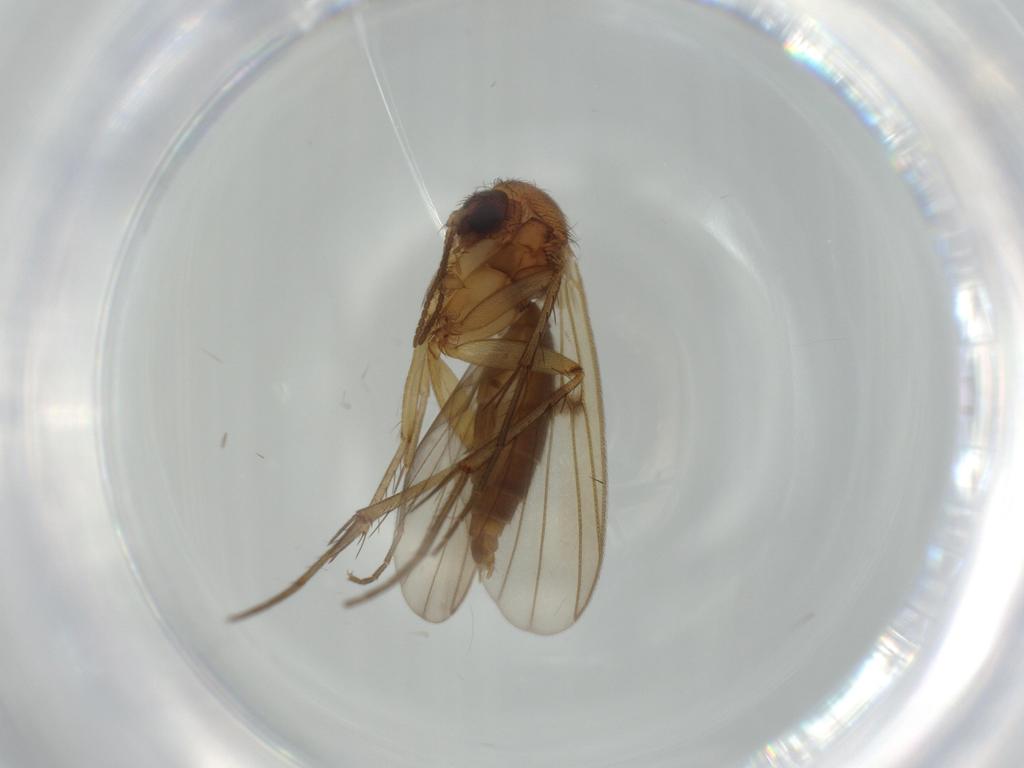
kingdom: Animalia
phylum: Arthropoda
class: Insecta
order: Diptera
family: Mycetophilidae
